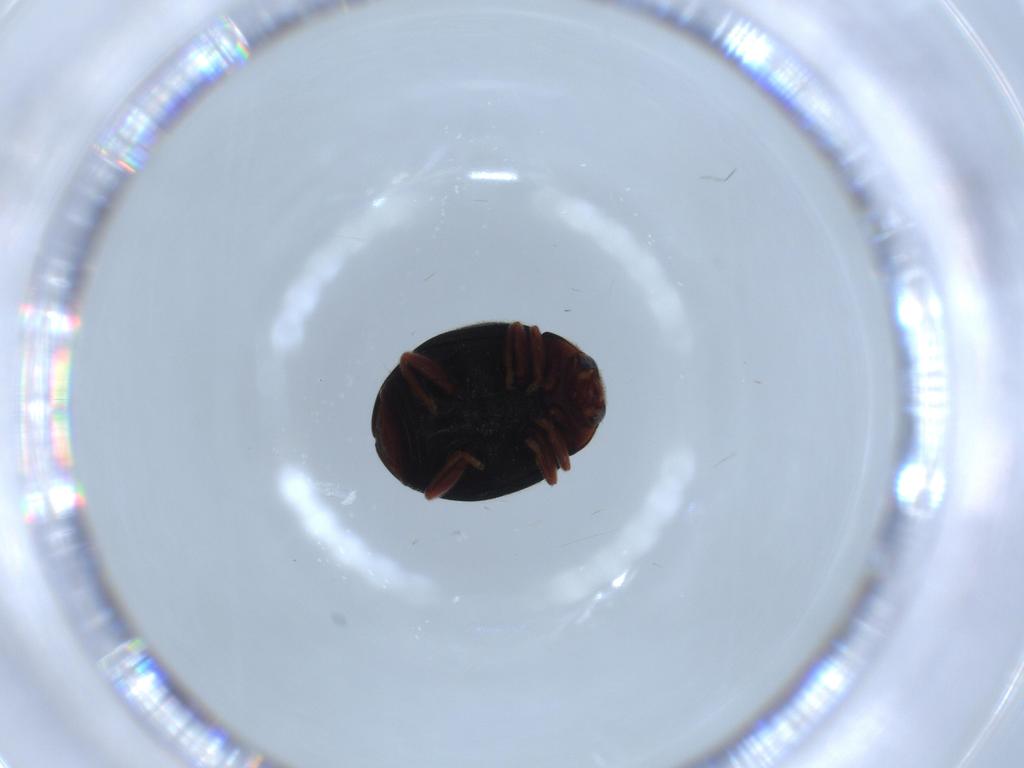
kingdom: Animalia
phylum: Arthropoda
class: Insecta
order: Coleoptera
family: Coccinellidae
